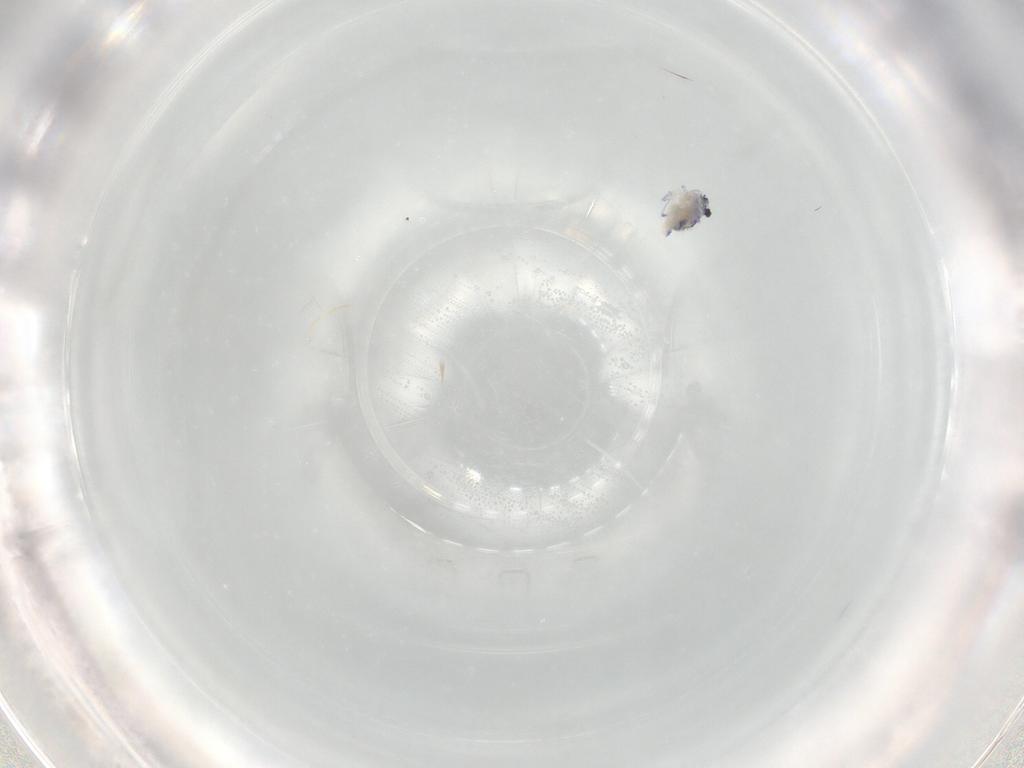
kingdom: Animalia
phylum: Arthropoda
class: Collembola
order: Symphypleona
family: Bourletiellidae
